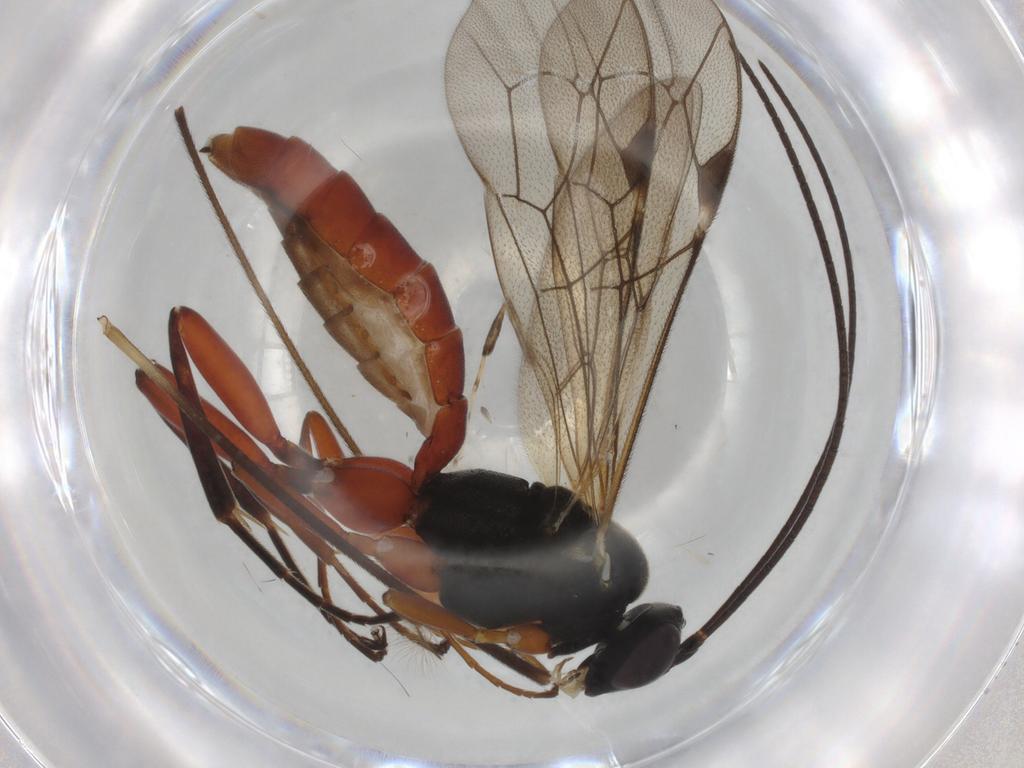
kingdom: Animalia
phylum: Arthropoda
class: Insecta
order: Hymenoptera
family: Ichneumonidae
